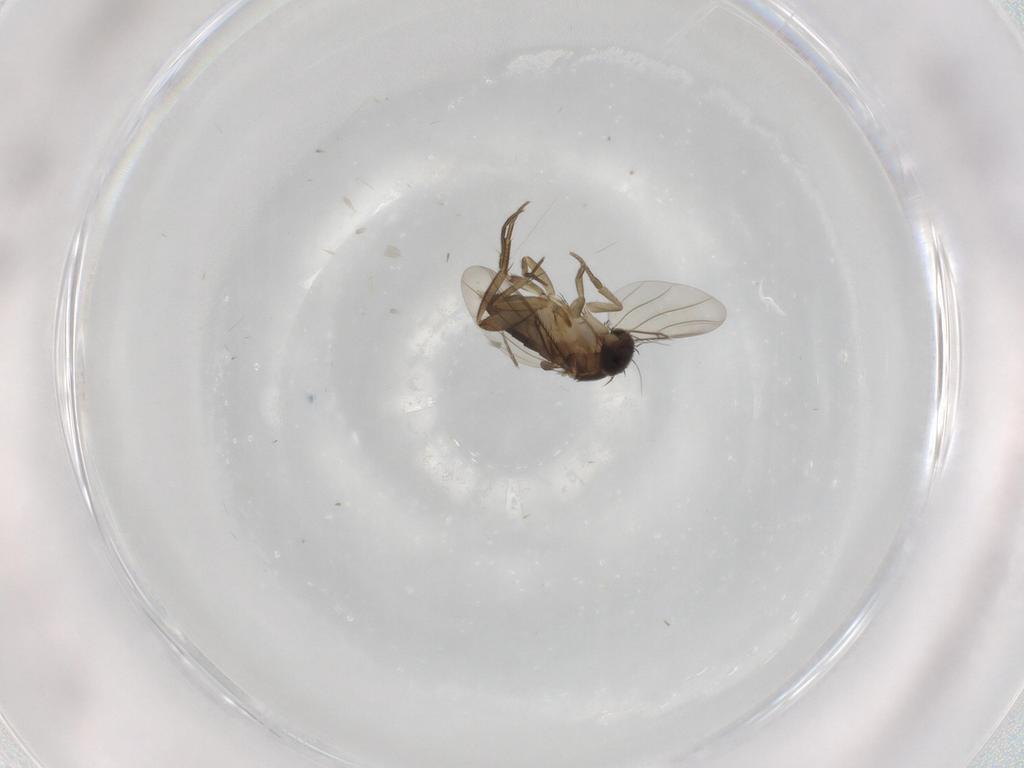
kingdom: Animalia
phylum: Arthropoda
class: Insecta
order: Diptera
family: Phoridae
